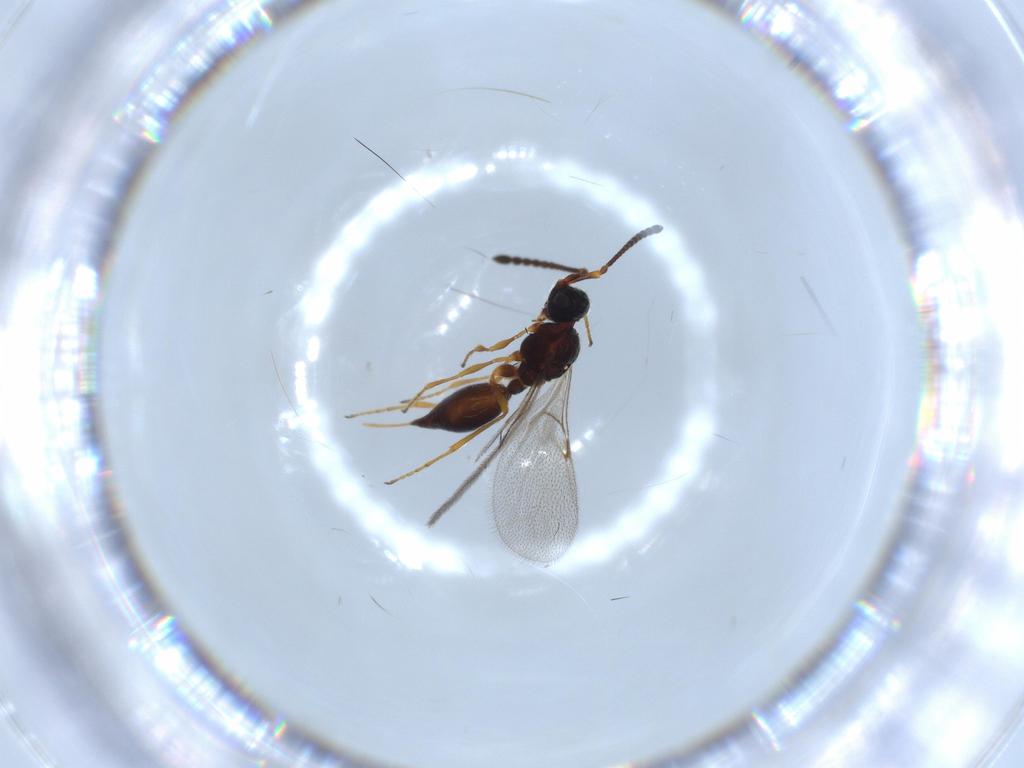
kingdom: Animalia
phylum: Arthropoda
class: Insecta
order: Hymenoptera
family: Diapriidae
